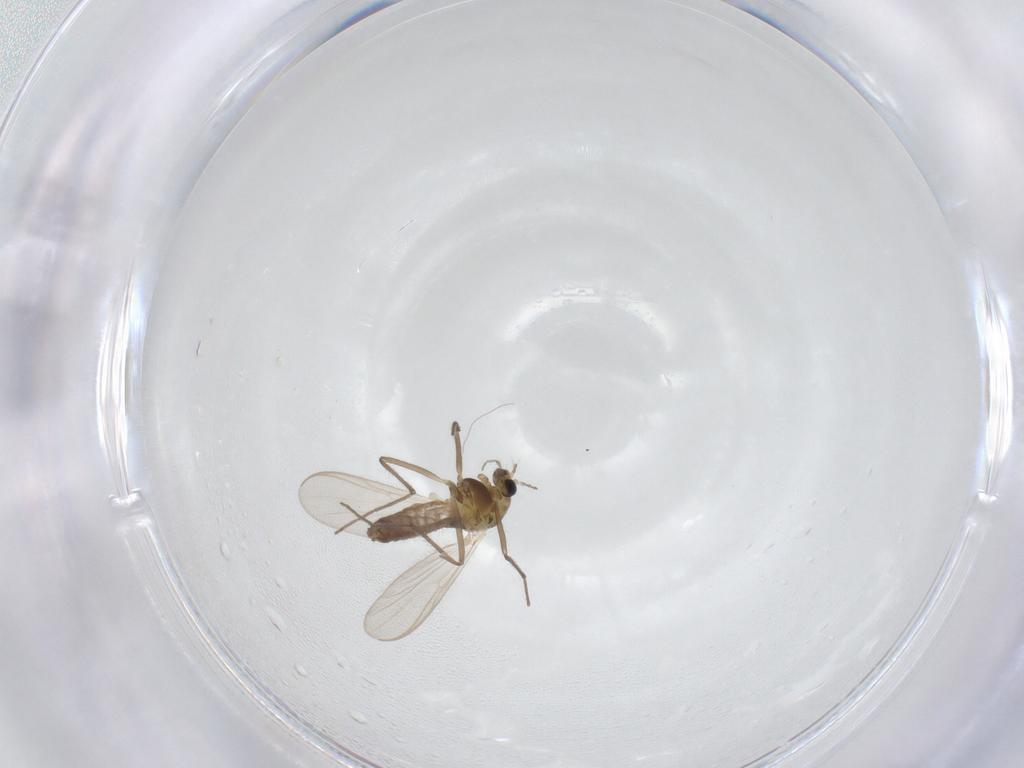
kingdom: Animalia
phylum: Arthropoda
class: Insecta
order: Diptera
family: Chironomidae
